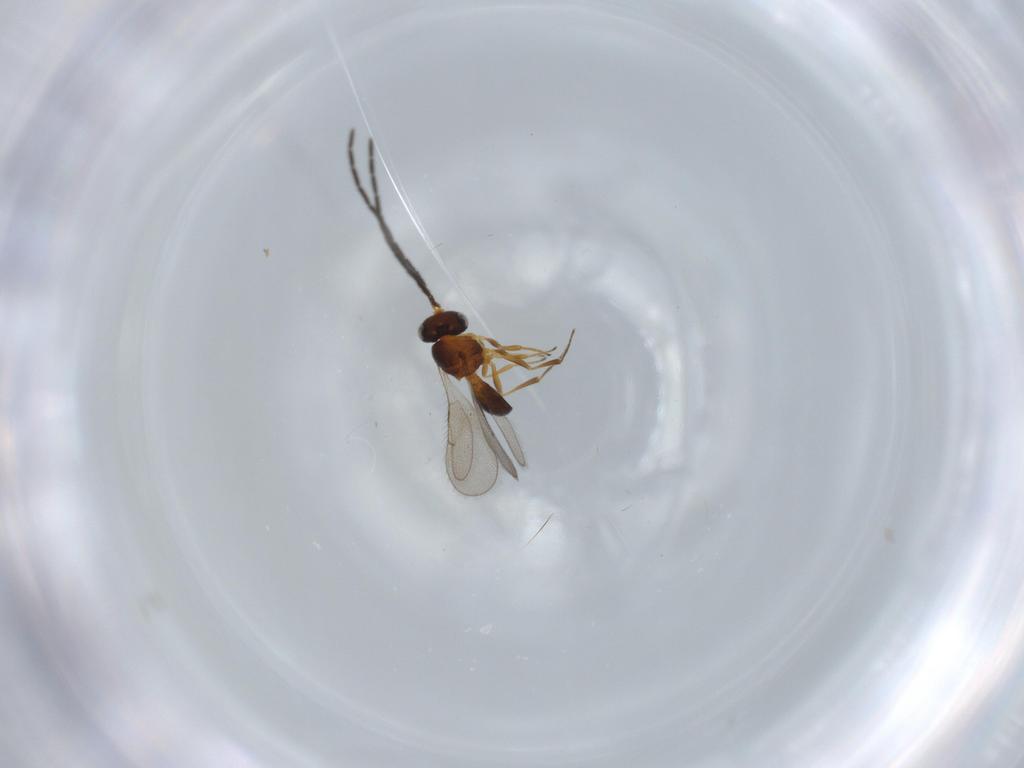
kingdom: Animalia
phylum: Arthropoda
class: Insecta
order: Hymenoptera
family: Scelionidae
